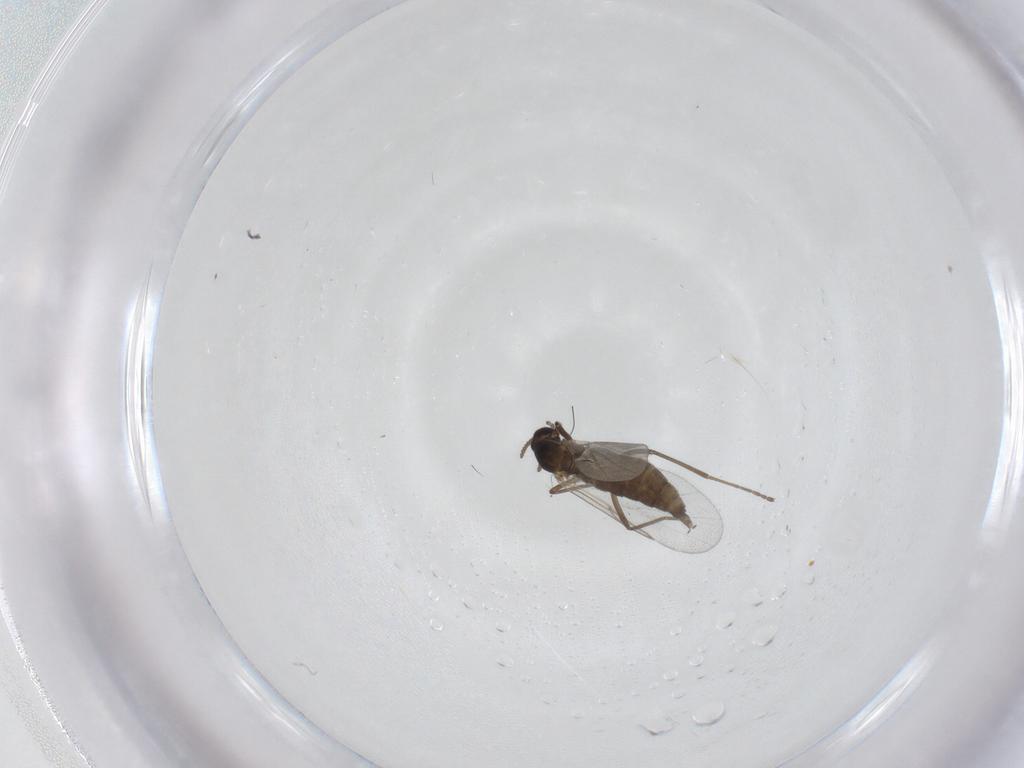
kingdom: Animalia
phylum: Arthropoda
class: Insecta
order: Diptera
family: Cecidomyiidae
